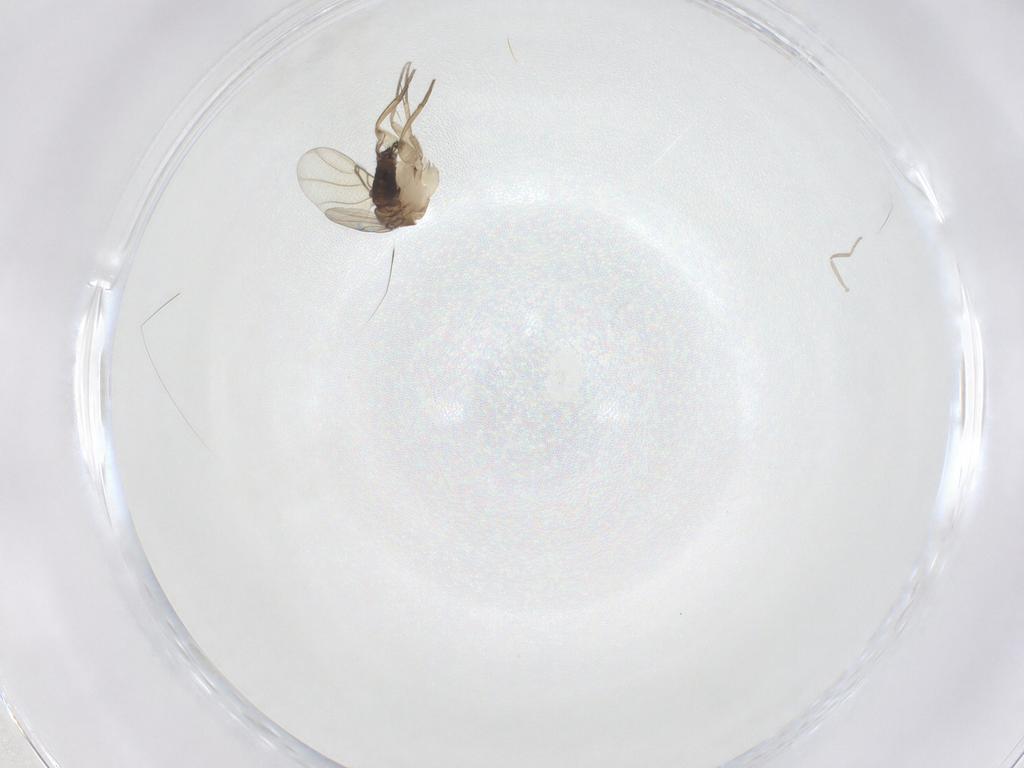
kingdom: Animalia
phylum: Arthropoda
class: Insecta
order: Diptera
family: Phoridae
